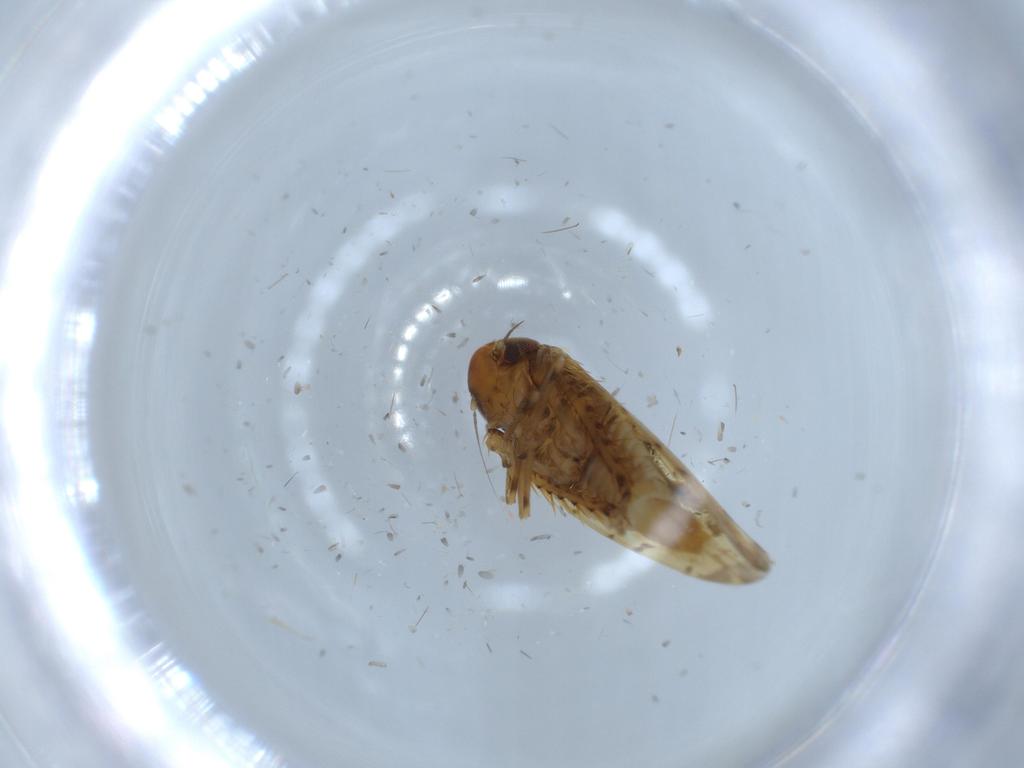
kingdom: Animalia
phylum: Arthropoda
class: Insecta
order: Hemiptera
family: Cicadellidae
